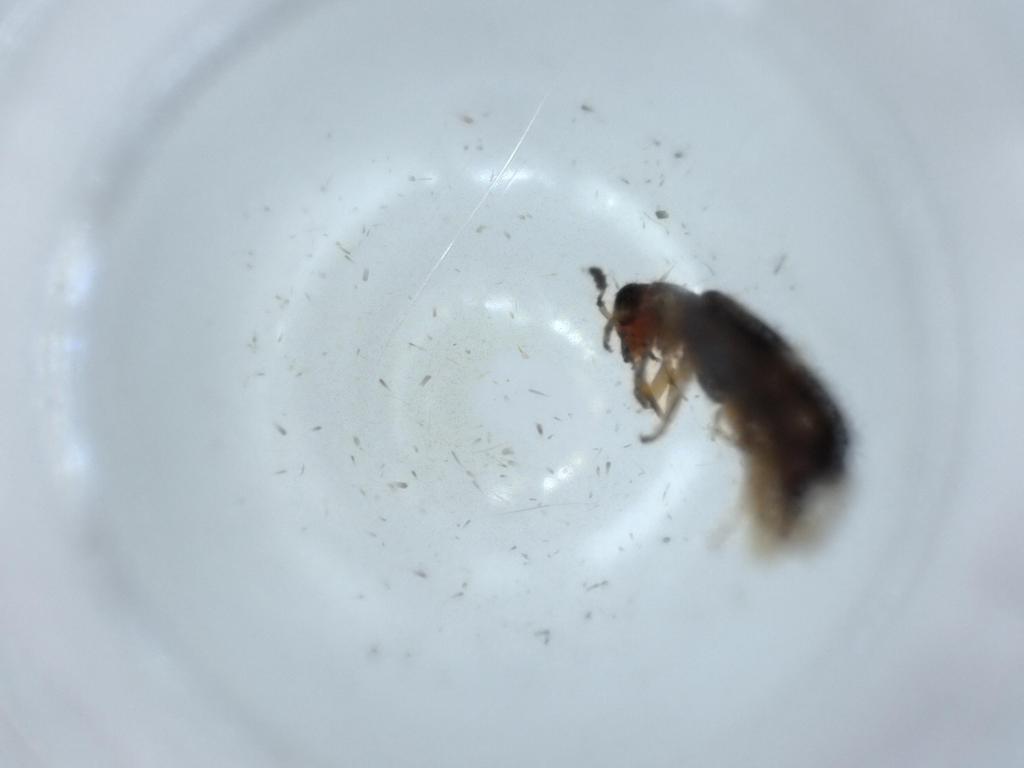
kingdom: Animalia
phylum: Arthropoda
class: Insecta
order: Coleoptera
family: Cleridae
